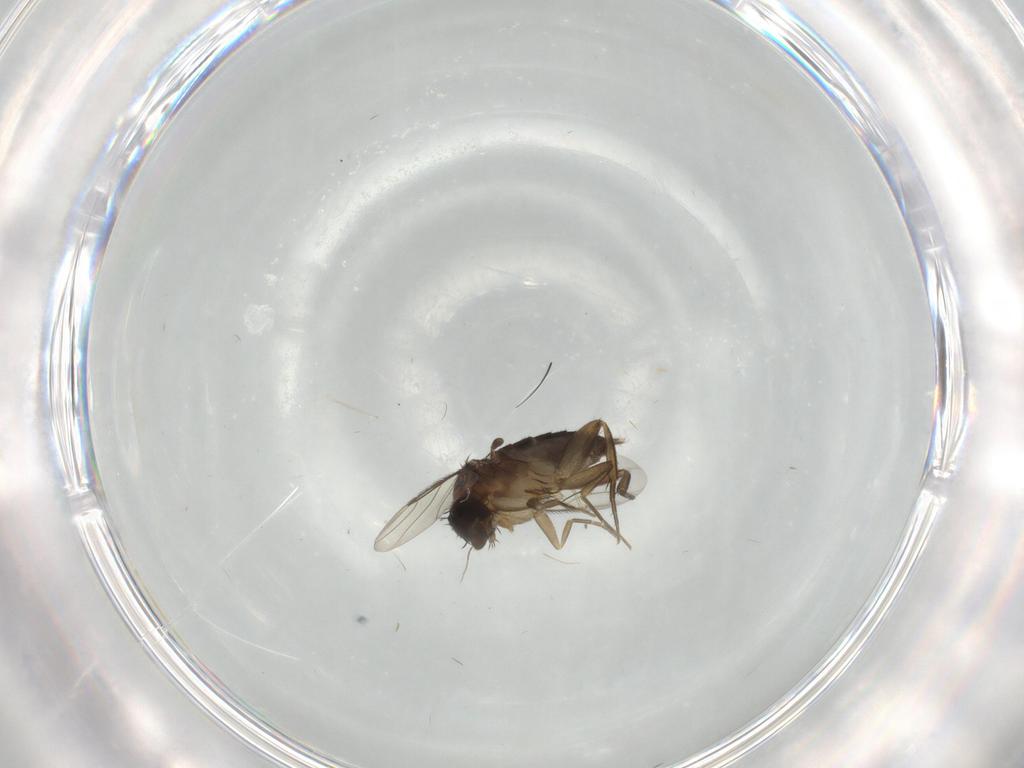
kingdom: Animalia
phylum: Arthropoda
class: Insecta
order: Diptera
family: Phoridae
